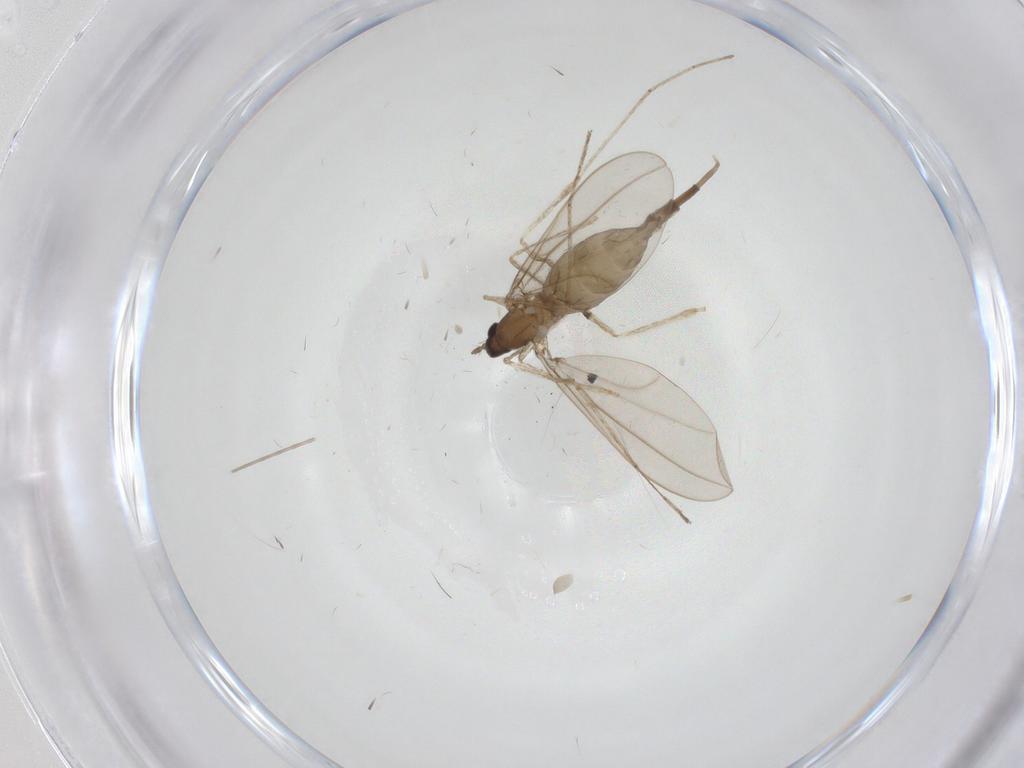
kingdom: Animalia
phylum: Arthropoda
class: Insecta
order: Diptera
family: Cecidomyiidae
